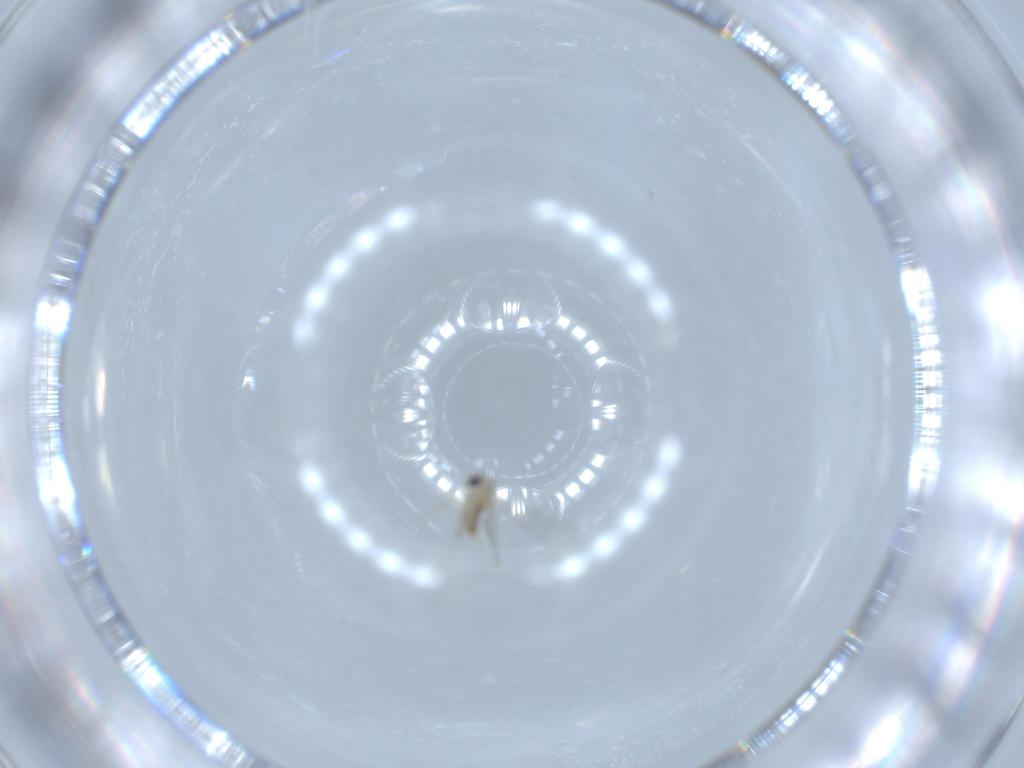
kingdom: Animalia
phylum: Arthropoda
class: Insecta
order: Diptera
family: Cecidomyiidae
